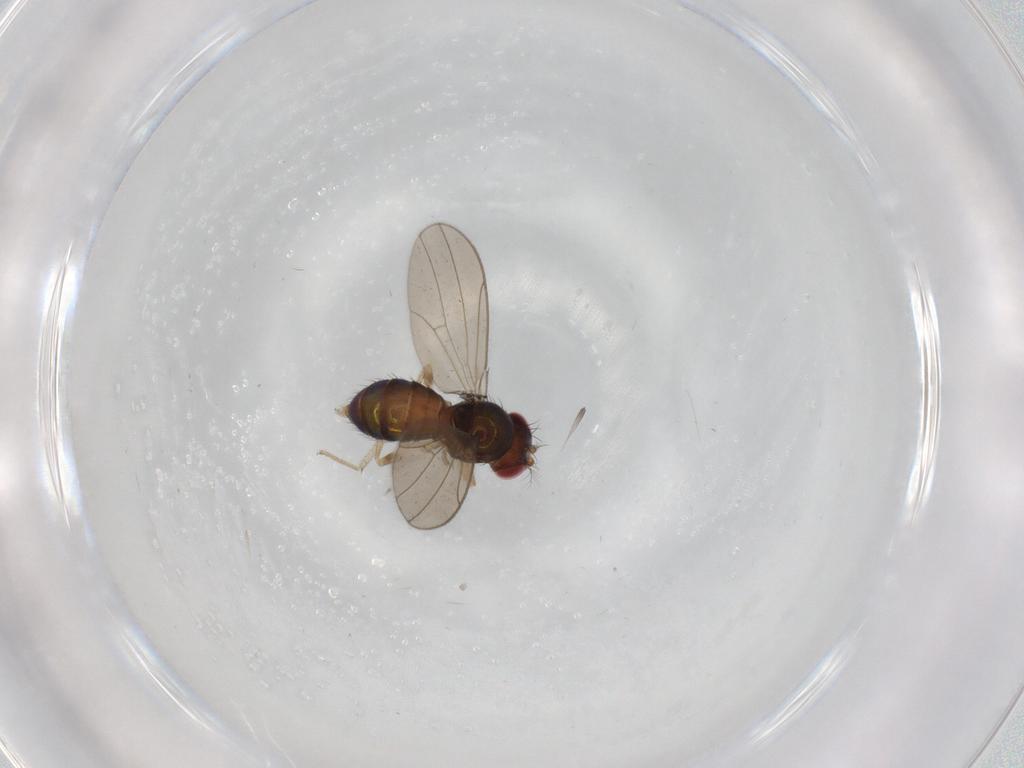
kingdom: Animalia
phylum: Arthropoda
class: Insecta
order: Diptera
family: Drosophilidae
